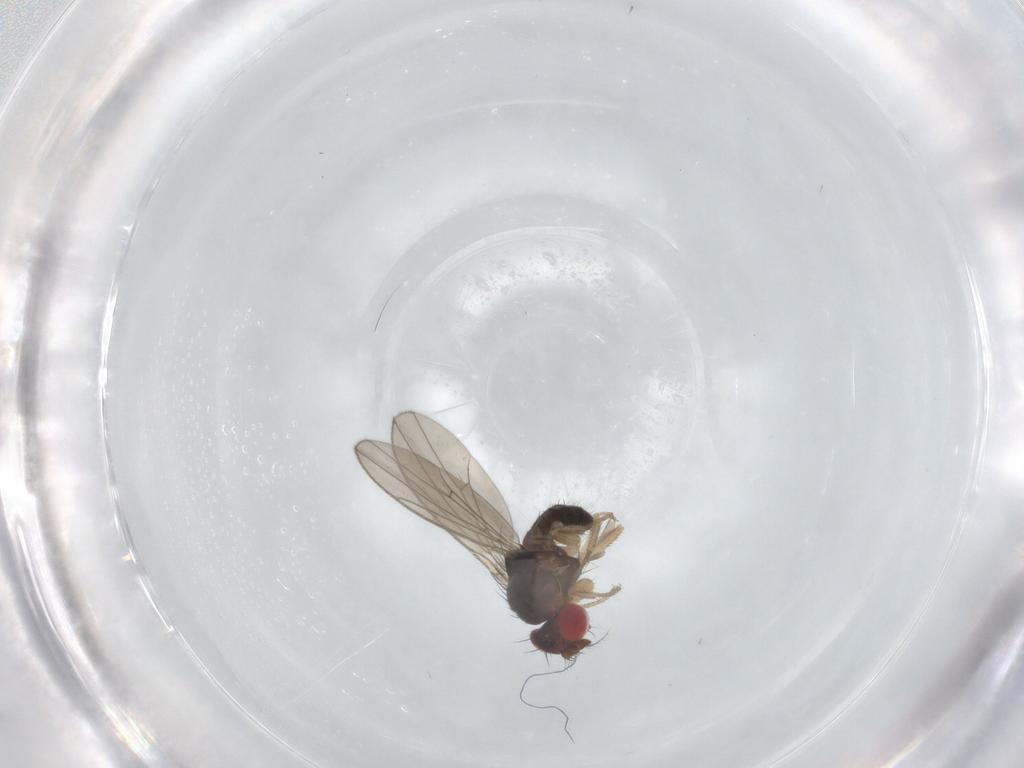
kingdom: Animalia
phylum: Arthropoda
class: Insecta
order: Diptera
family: Drosophilidae
